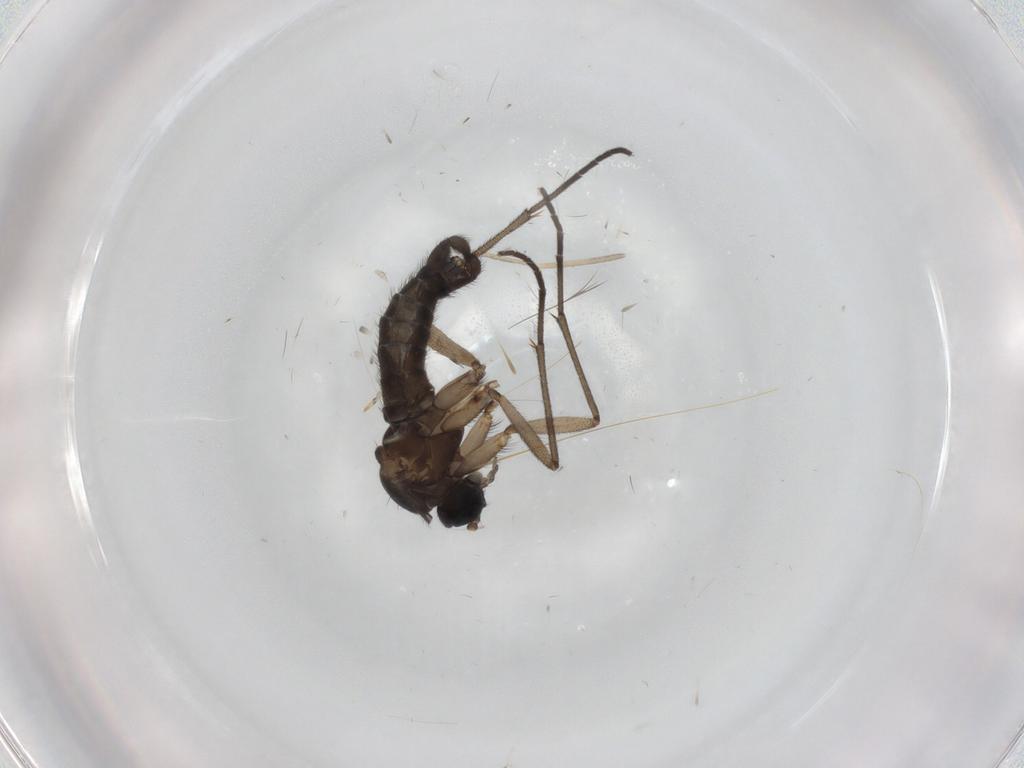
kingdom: Animalia
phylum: Arthropoda
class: Insecta
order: Diptera
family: Sciaridae
